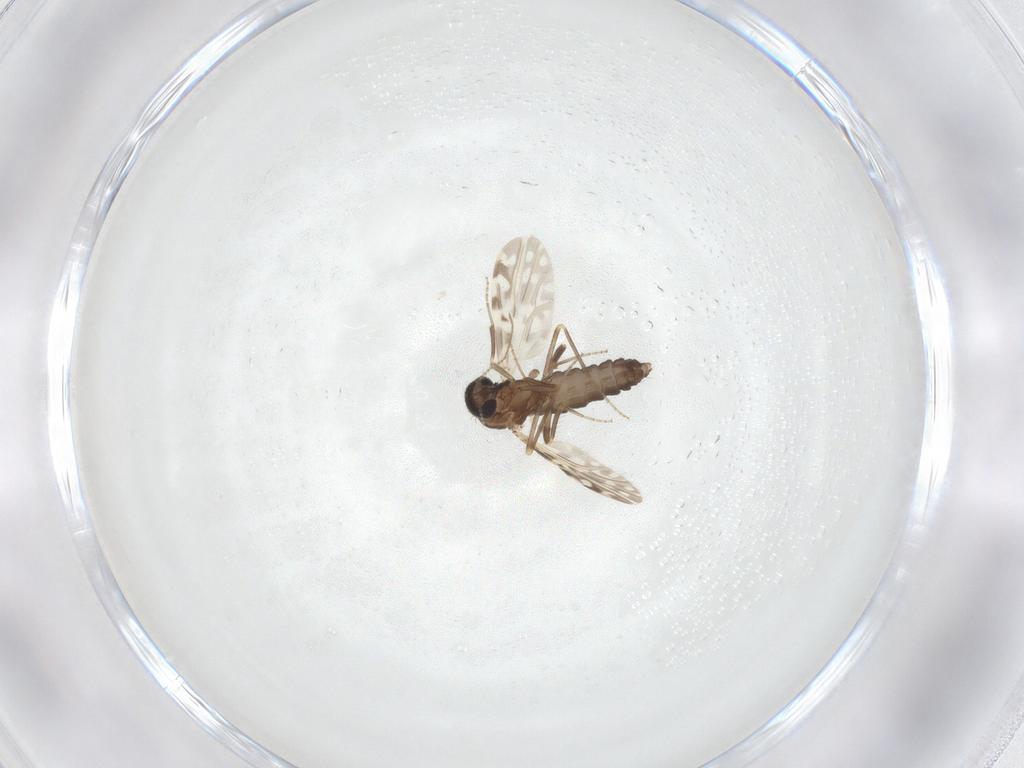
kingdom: Animalia
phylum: Arthropoda
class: Insecta
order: Diptera
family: Ceratopogonidae
